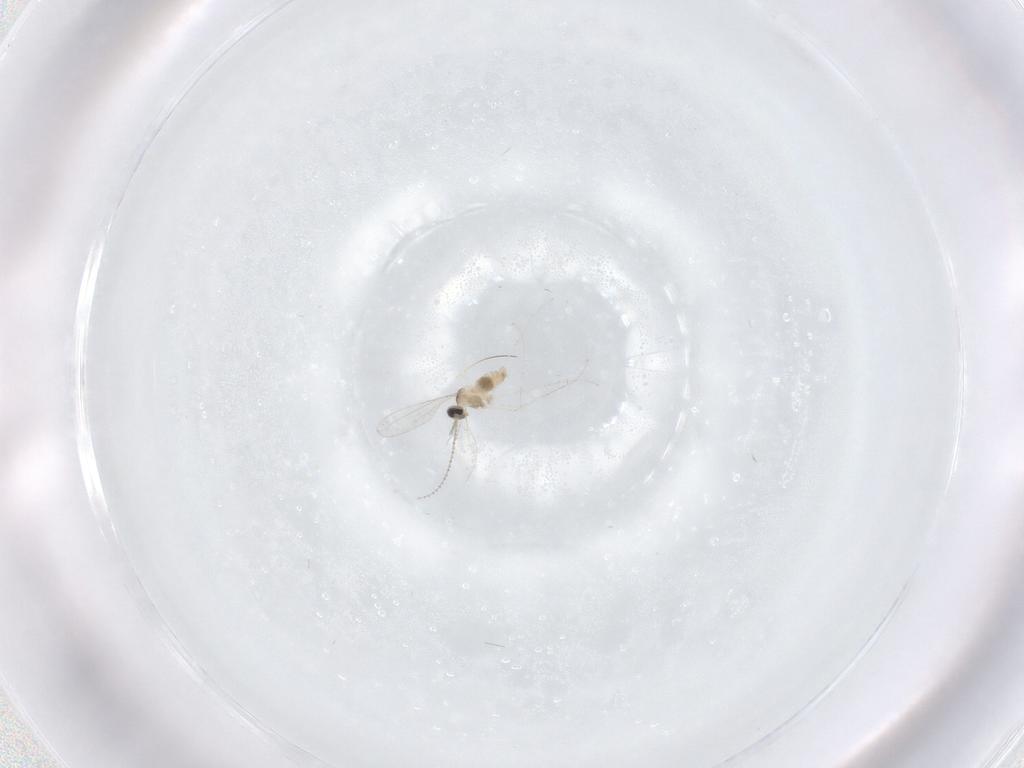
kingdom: Animalia
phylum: Arthropoda
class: Insecta
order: Diptera
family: Cecidomyiidae
